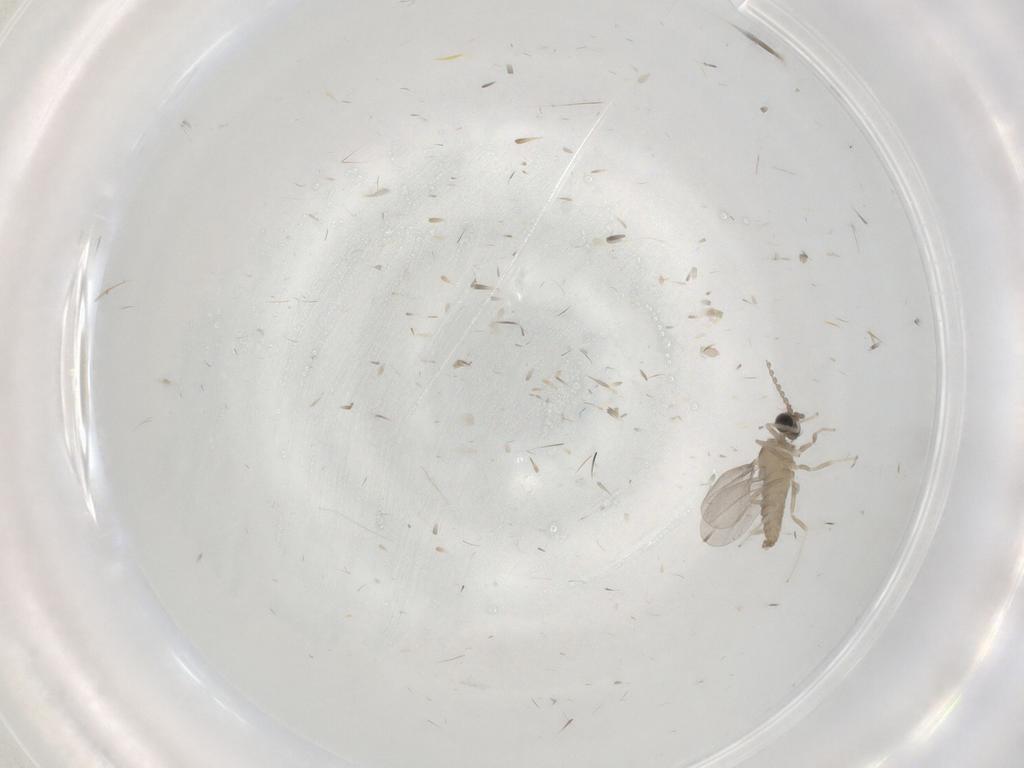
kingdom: Animalia
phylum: Arthropoda
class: Insecta
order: Diptera
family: Cecidomyiidae
